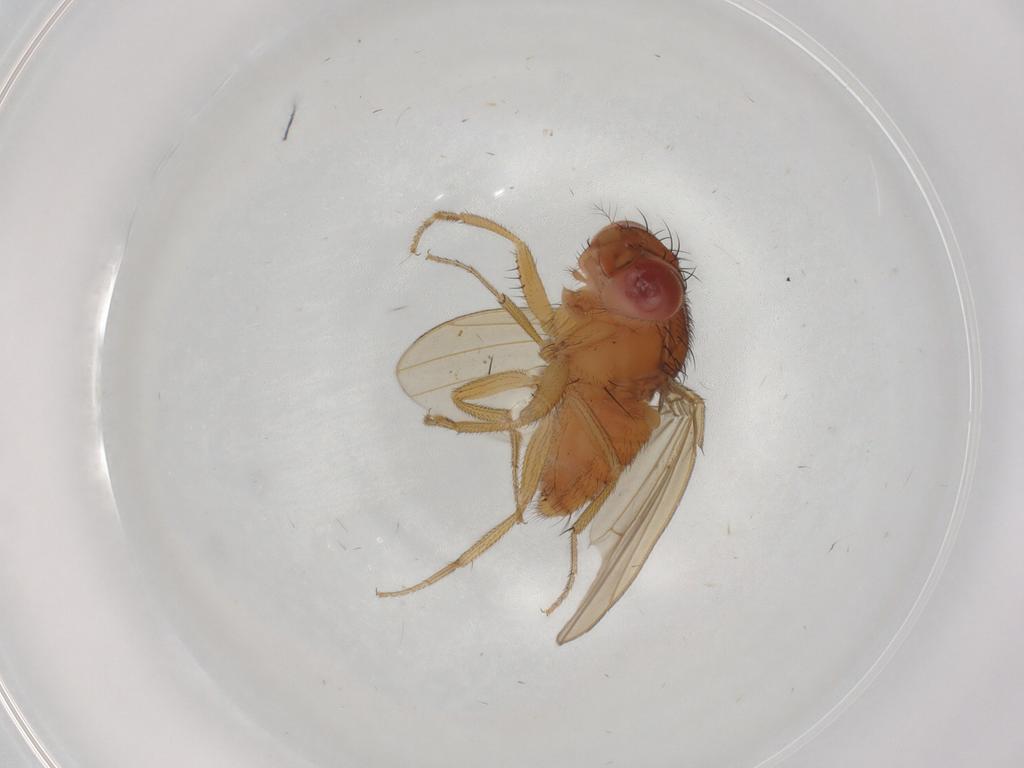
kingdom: Animalia
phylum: Arthropoda
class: Insecta
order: Diptera
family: Drosophilidae
